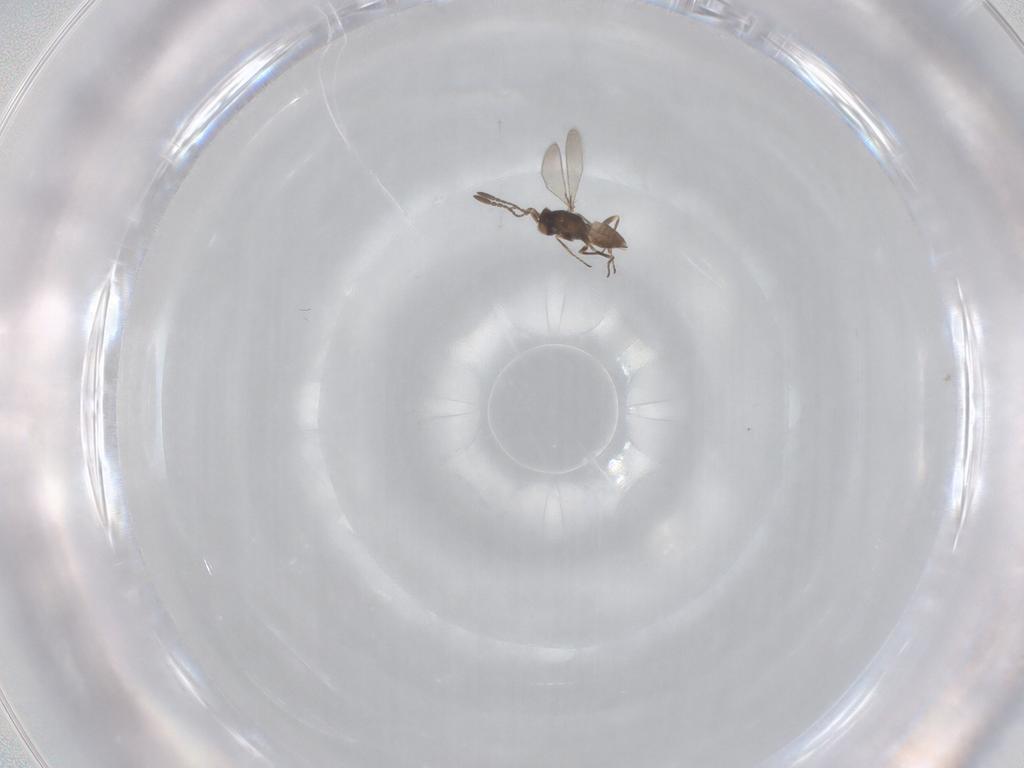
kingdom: Animalia
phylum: Arthropoda
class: Insecta
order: Hymenoptera
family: Mymaridae
